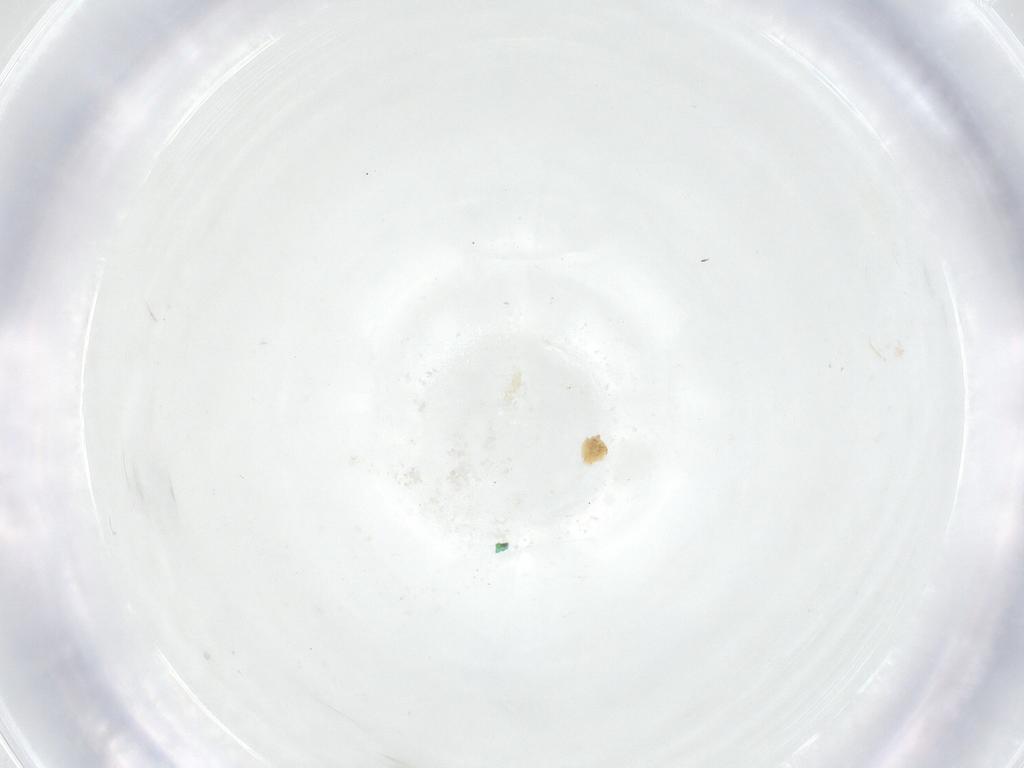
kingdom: Animalia
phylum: Arthropoda
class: Insecta
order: Diptera
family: Fergusoninidae
